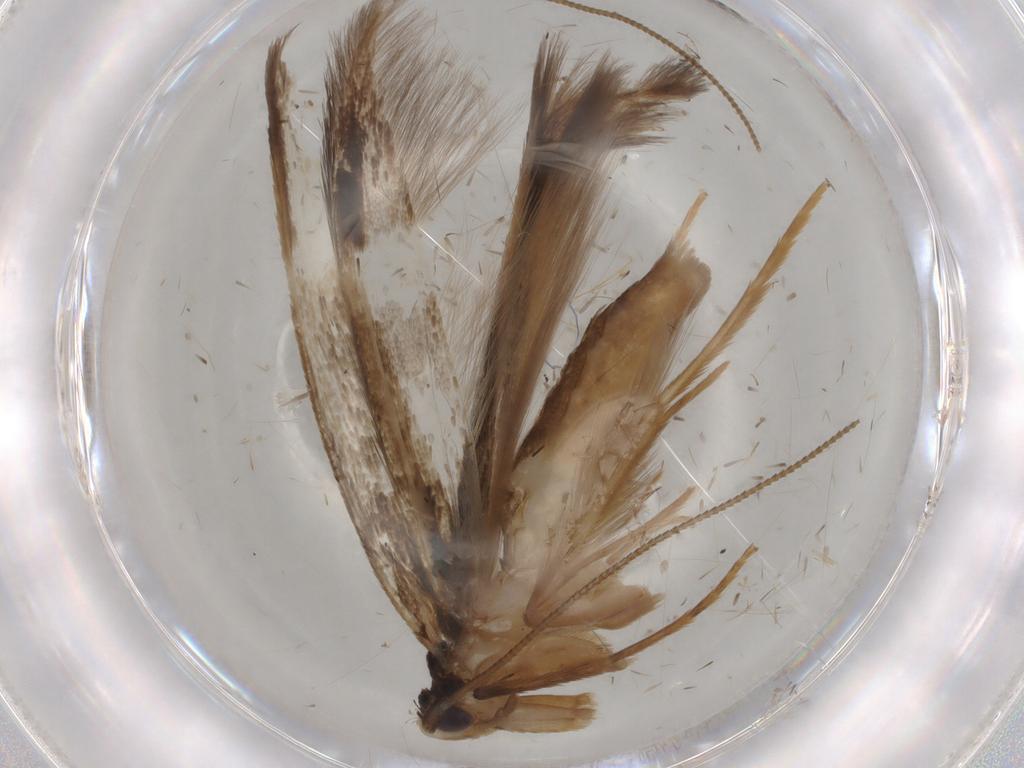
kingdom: Animalia
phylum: Arthropoda
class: Insecta
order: Lepidoptera
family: Tineidae
